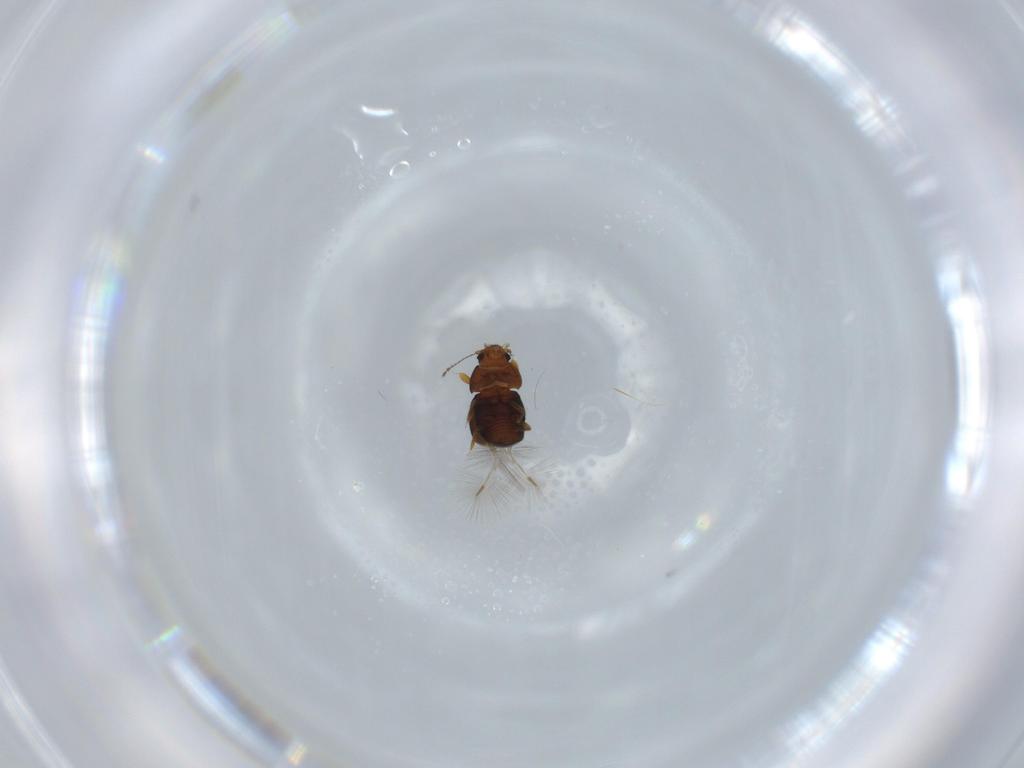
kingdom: Animalia
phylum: Arthropoda
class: Insecta
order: Coleoptera
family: Ptiliidae
